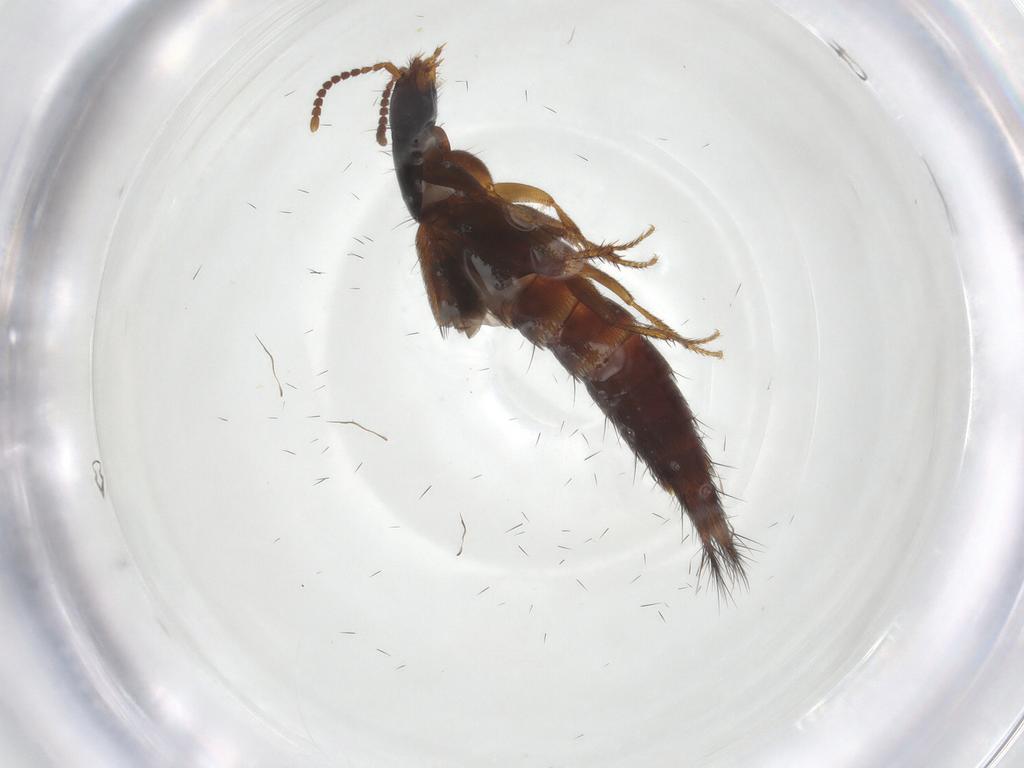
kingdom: Animalia
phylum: Arthropoda
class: Insecta
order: Coleoptera
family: Staphylinidae
